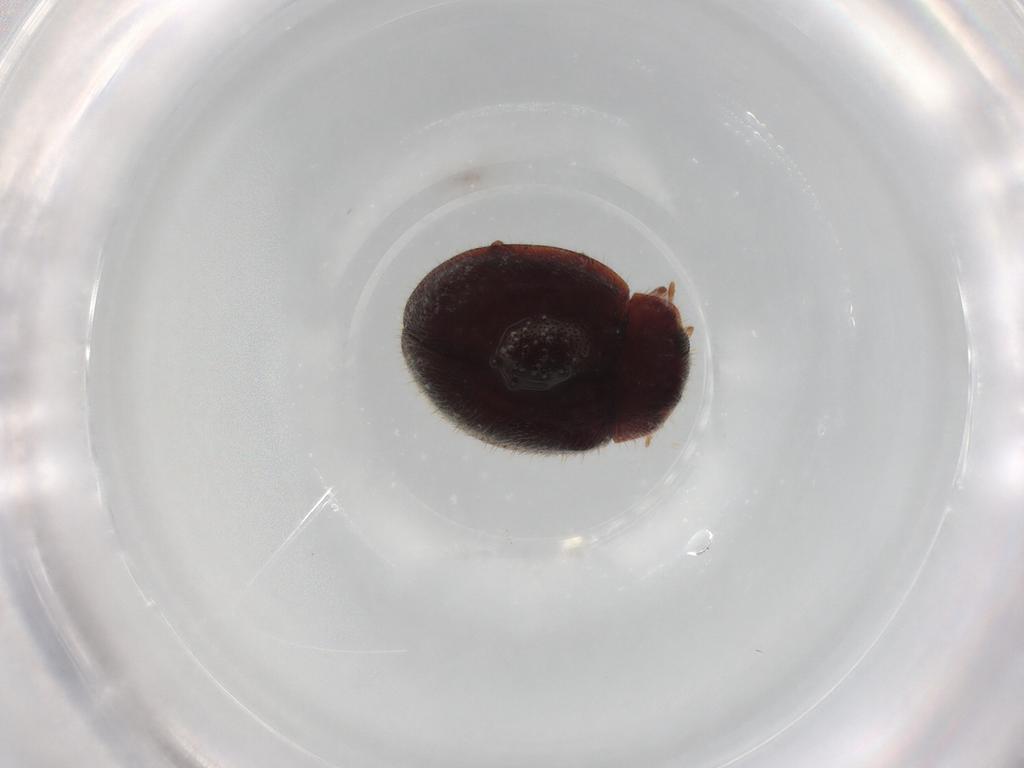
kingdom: Animalia
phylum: Arthropoda
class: Insecta
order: Coleoptera
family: Coccinellidae
